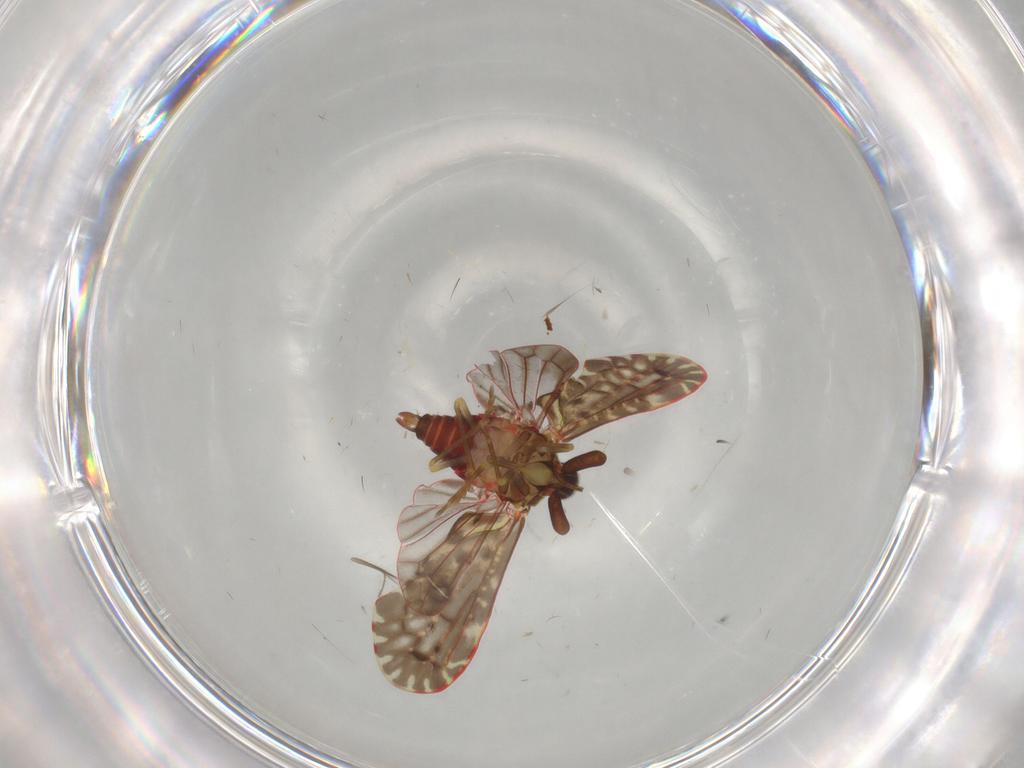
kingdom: Animalia
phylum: Arthropoda
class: Insecta
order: Hemiptera
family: Derbidae
